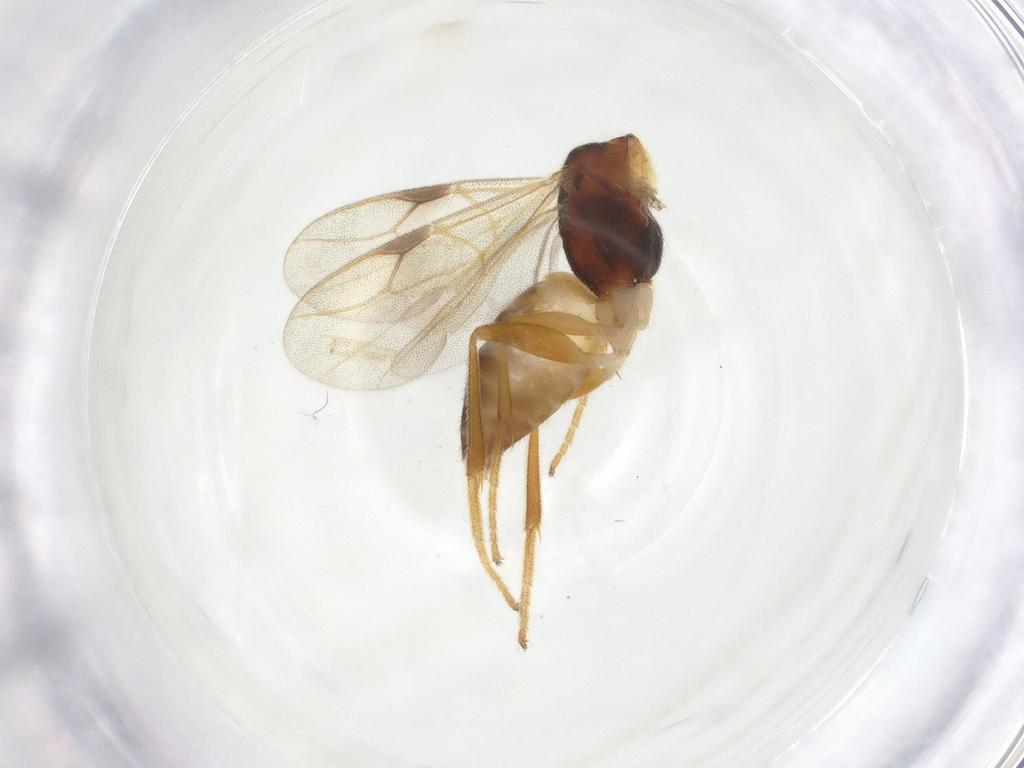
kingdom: Animalia
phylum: Arthropoda
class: Insecta
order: Hymenoptera
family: Dryinidae
